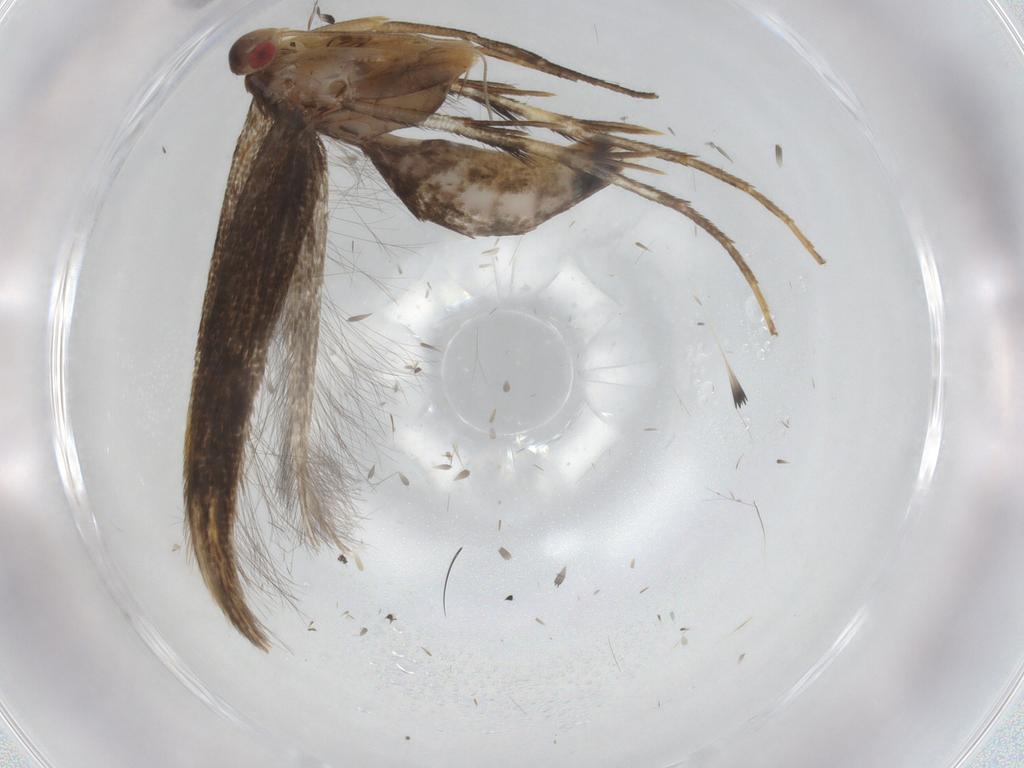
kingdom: Animalia
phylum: Arthropoda
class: Insecta
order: Lepidoptera
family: Cosmopterigidae
